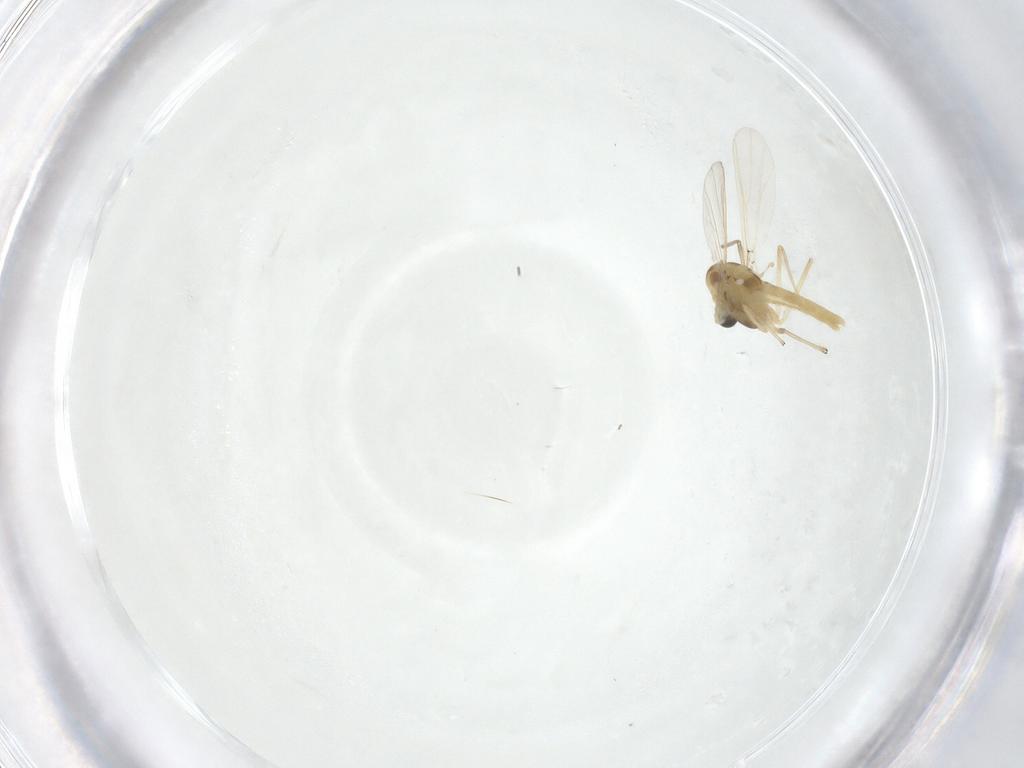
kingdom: Animalia
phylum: Arthropoda
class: Insecta
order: Diptera
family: Chironomidae
